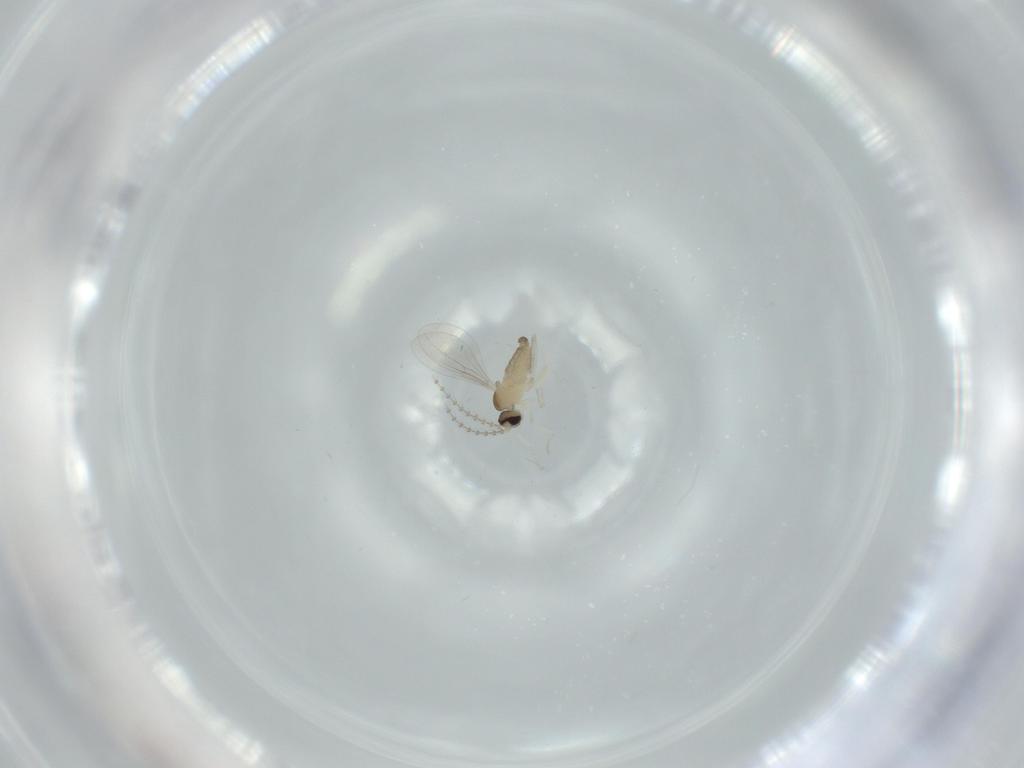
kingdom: Animalia
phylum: Arthropoda
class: Insecta
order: Diptera
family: Cecidomyiidae
